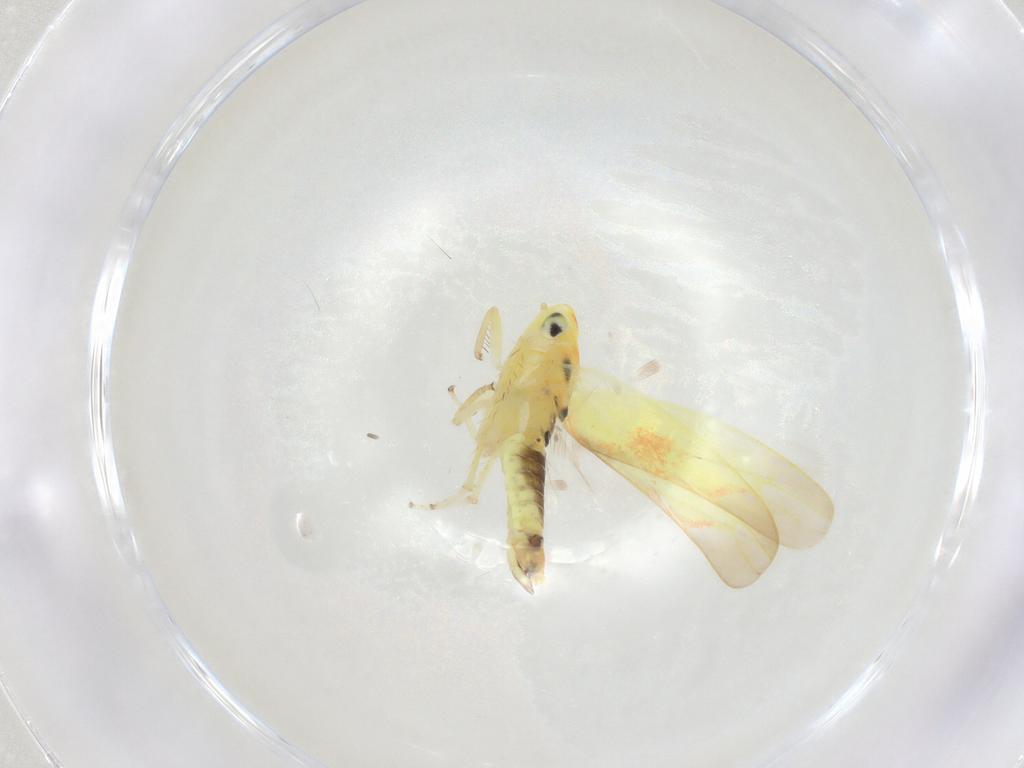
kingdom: Animalia
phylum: Arthropoda
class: Insecta
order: Hemiptera
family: Cicadellidae
